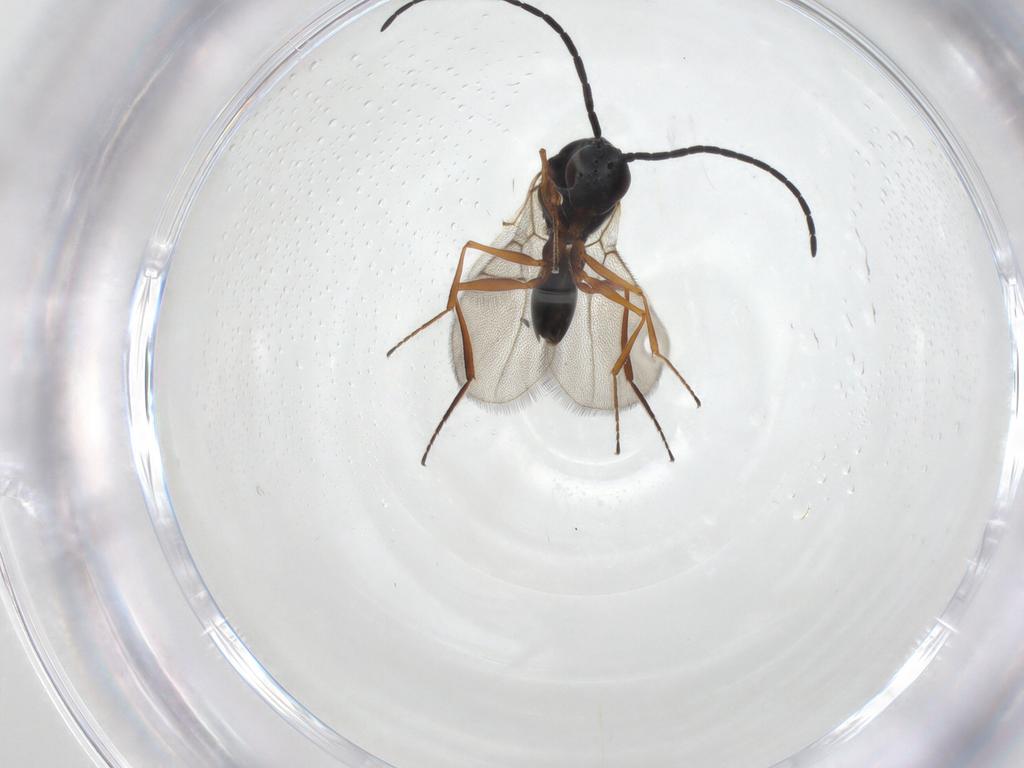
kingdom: Animalia
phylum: Arthropoda
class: Insecta
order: Hymenoptera
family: Figitidae
